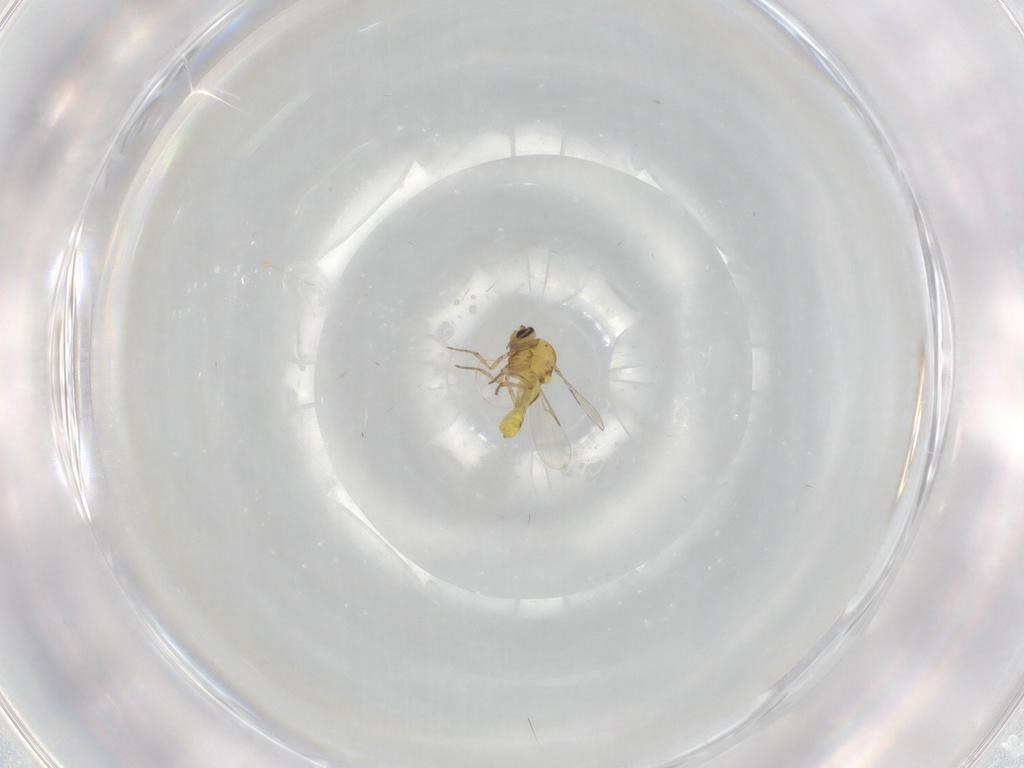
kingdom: Animalia
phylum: Arthropoda
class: Insecta
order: Diptera
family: Ceratopogonidae
